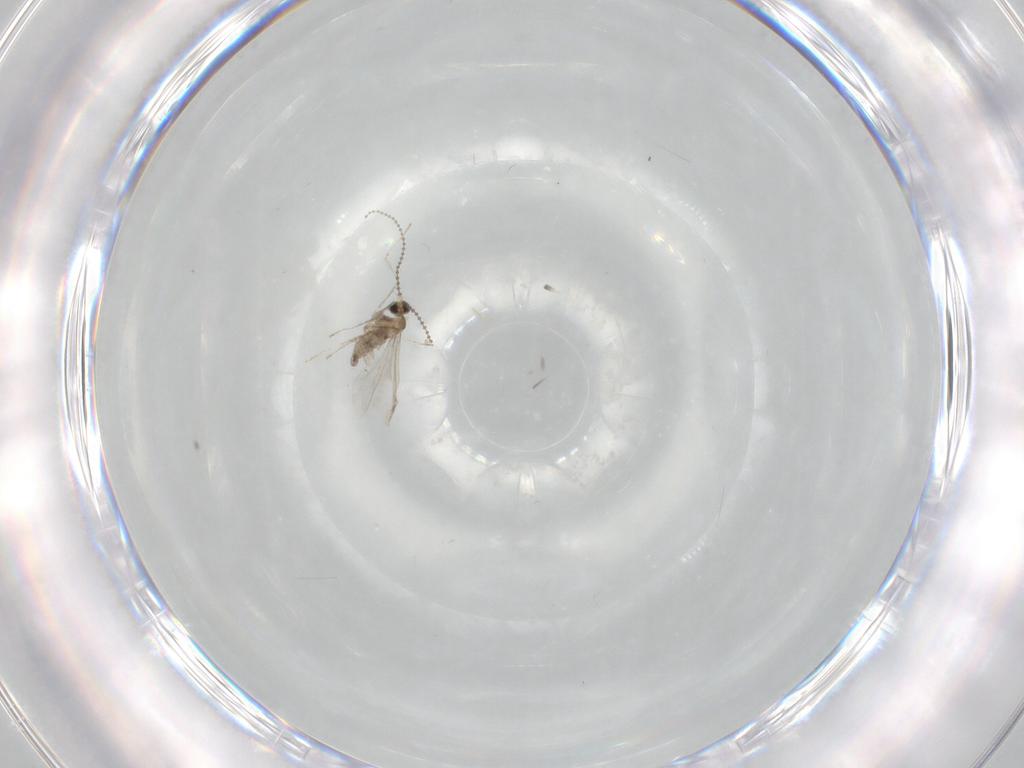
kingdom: Animalia
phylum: Arthropoda
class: Insecta
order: Diptera
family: Cecidomyiidae
